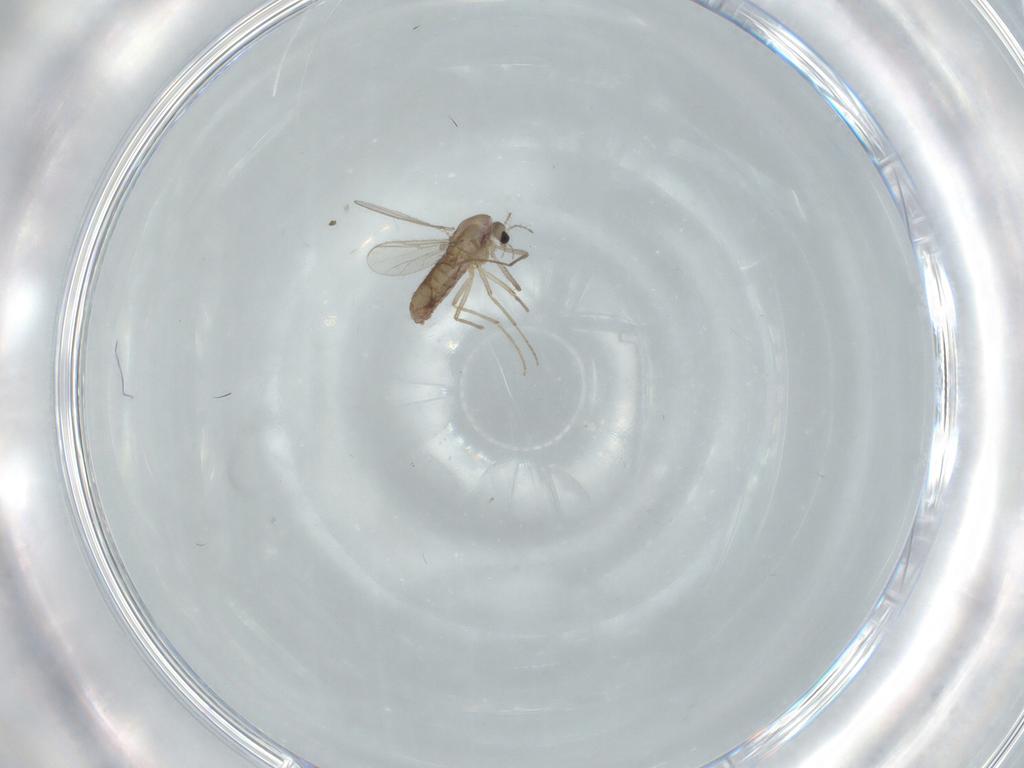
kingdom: Animalia
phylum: Arthropoda
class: Insecta
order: Diptera
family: Chironomidae
